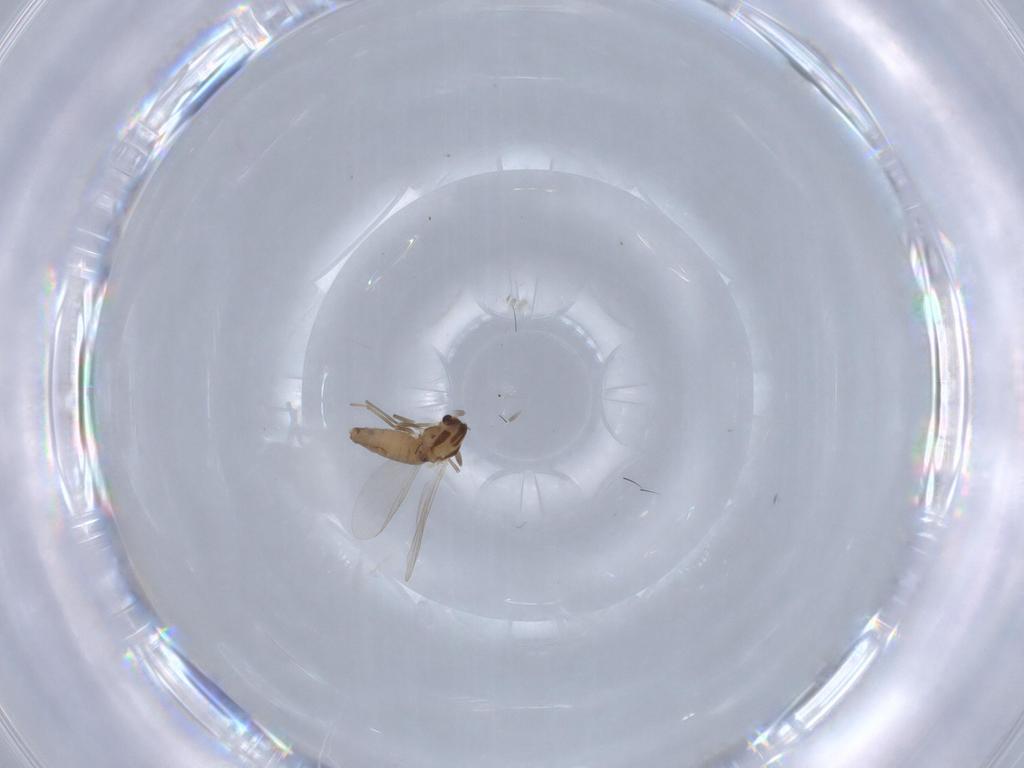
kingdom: Animalia
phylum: Arthropoda
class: Insecta
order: Diptera
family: Chironomidae
